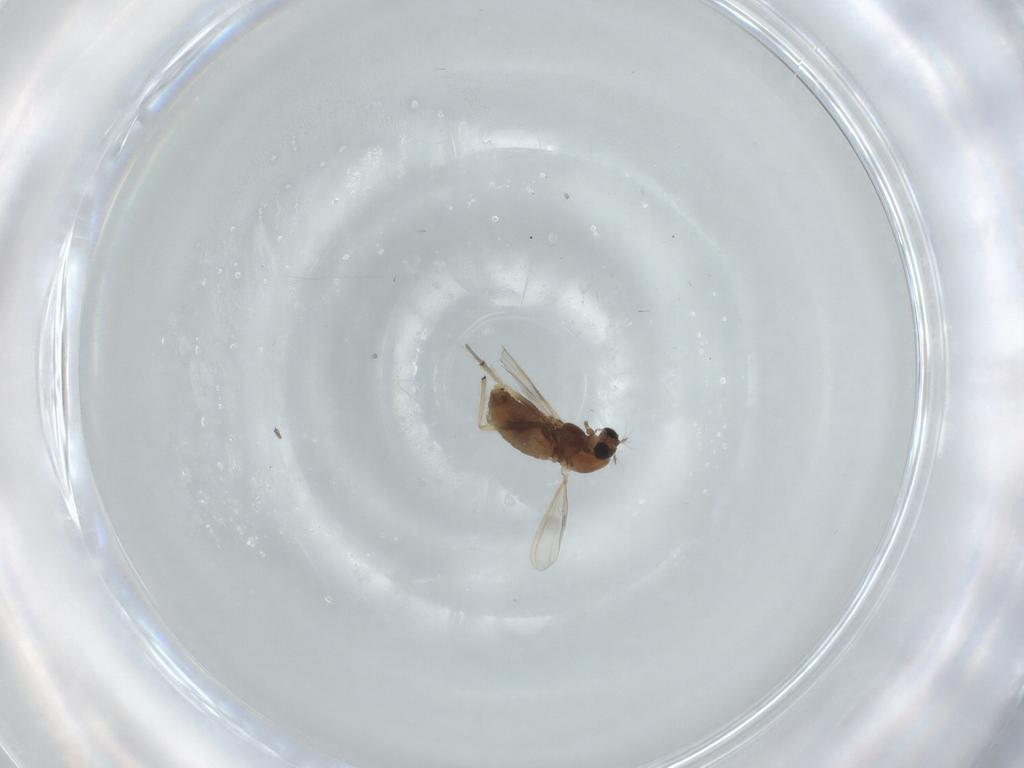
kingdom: Animalia
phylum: Arthropoda
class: Insecta
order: Diptera
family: Chironomidae
